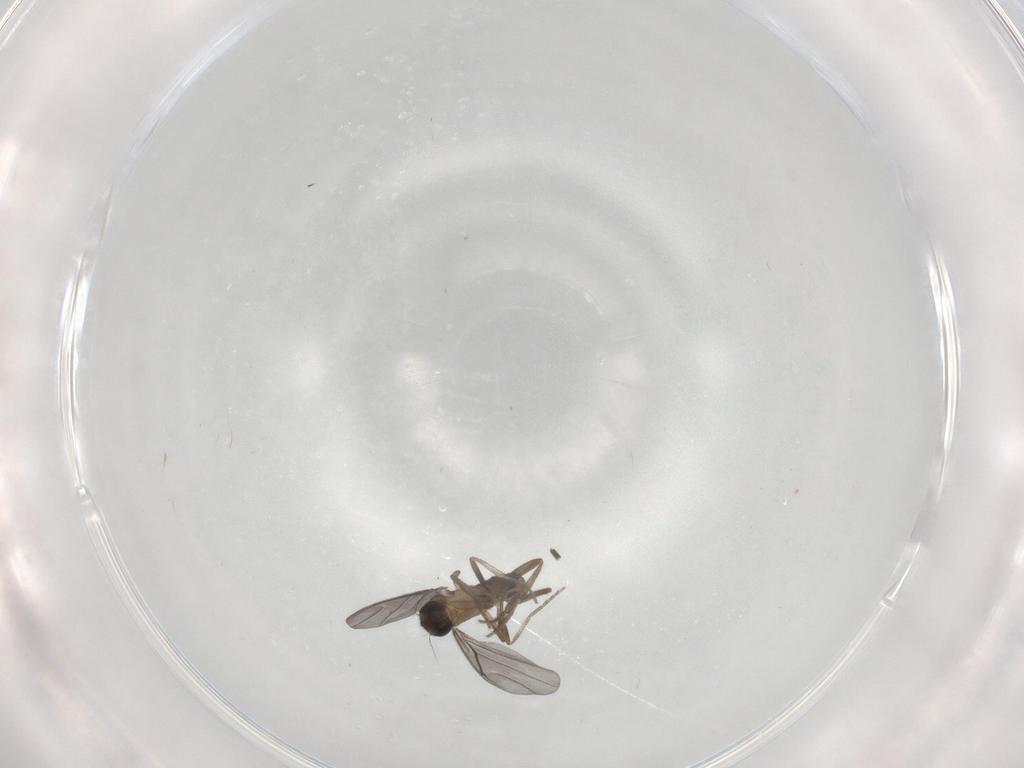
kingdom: Animalia
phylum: Arthropoda
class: Insecta
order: Diptera
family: Phoridae
